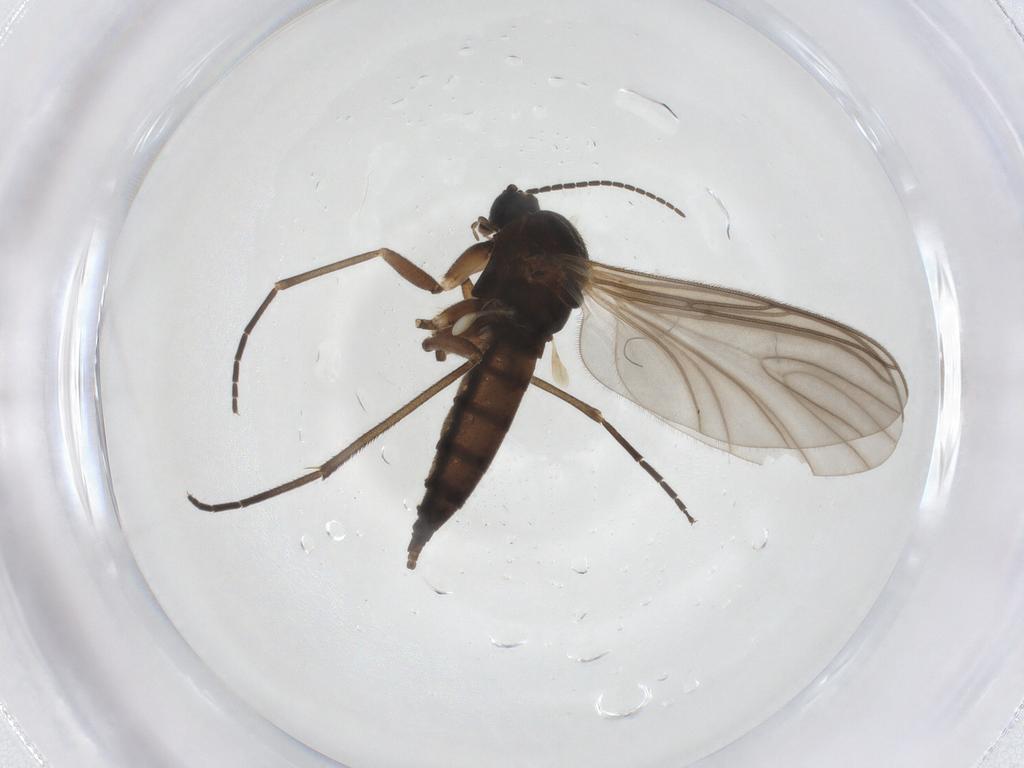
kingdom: Animalia
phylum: Arthropoda
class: Insecta
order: Diptera
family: Sciaridae
